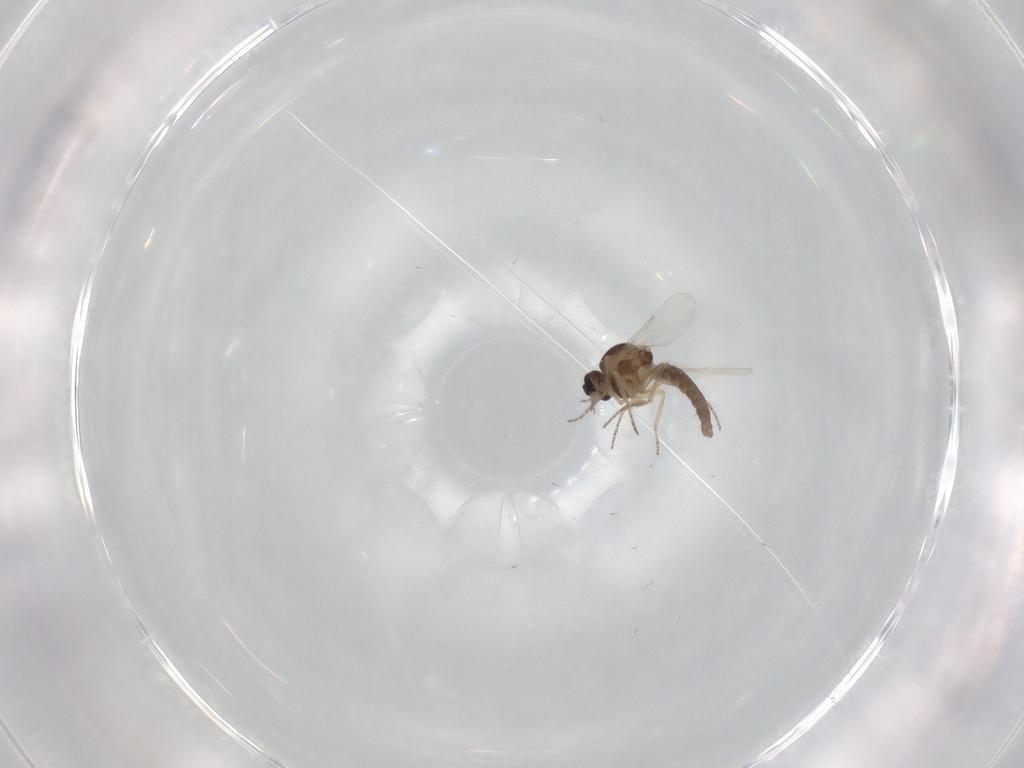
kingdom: Animalia
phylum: Arthropoda
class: Insecta
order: Diptera
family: Ceratopogonidae
